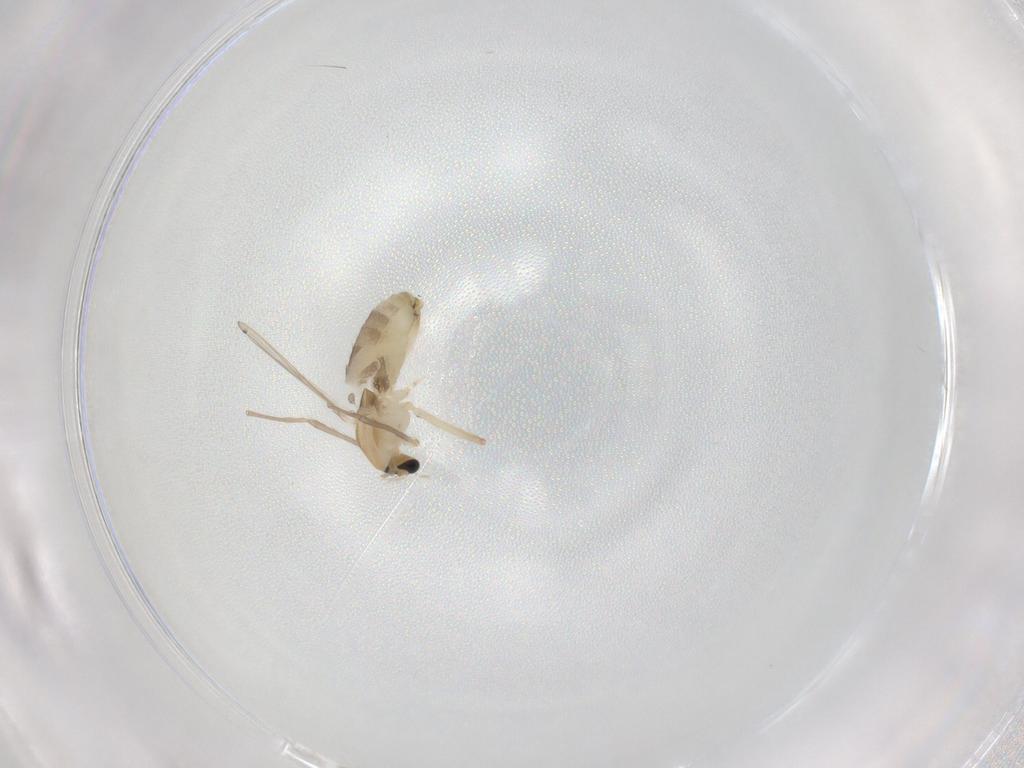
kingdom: Animalia
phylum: Arthropoda
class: Insecta
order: Diptera
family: Chironomidae
